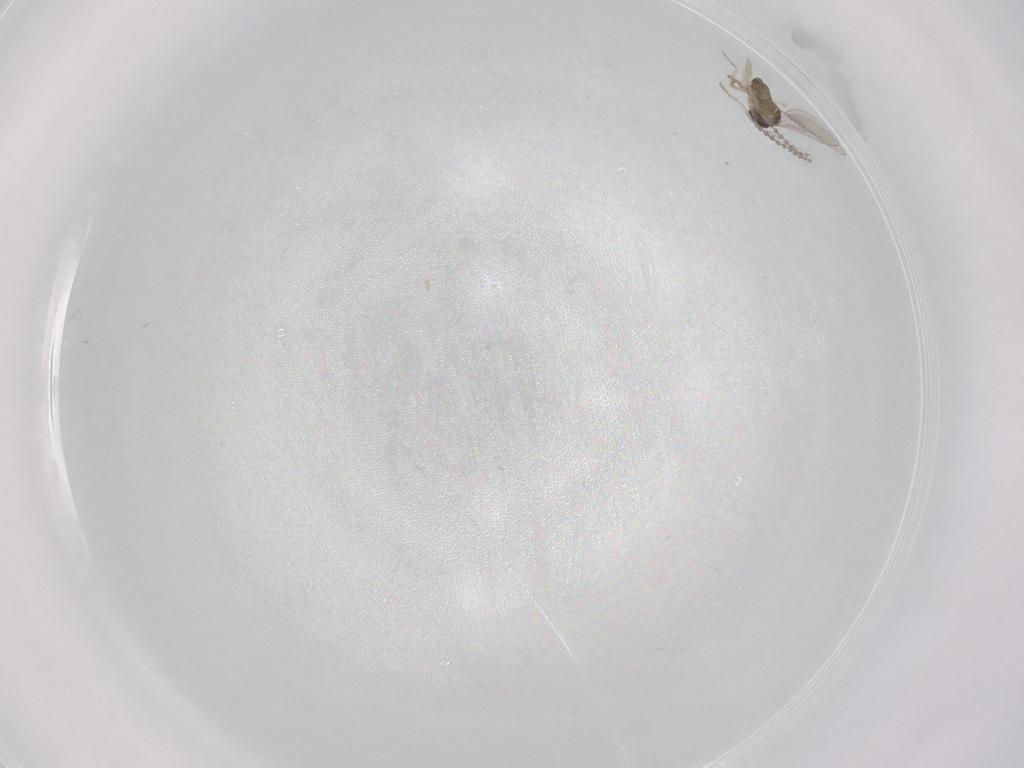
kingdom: Animalia
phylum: Arthropoda
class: Insecta
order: Diptera
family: Cecidomyiidae
